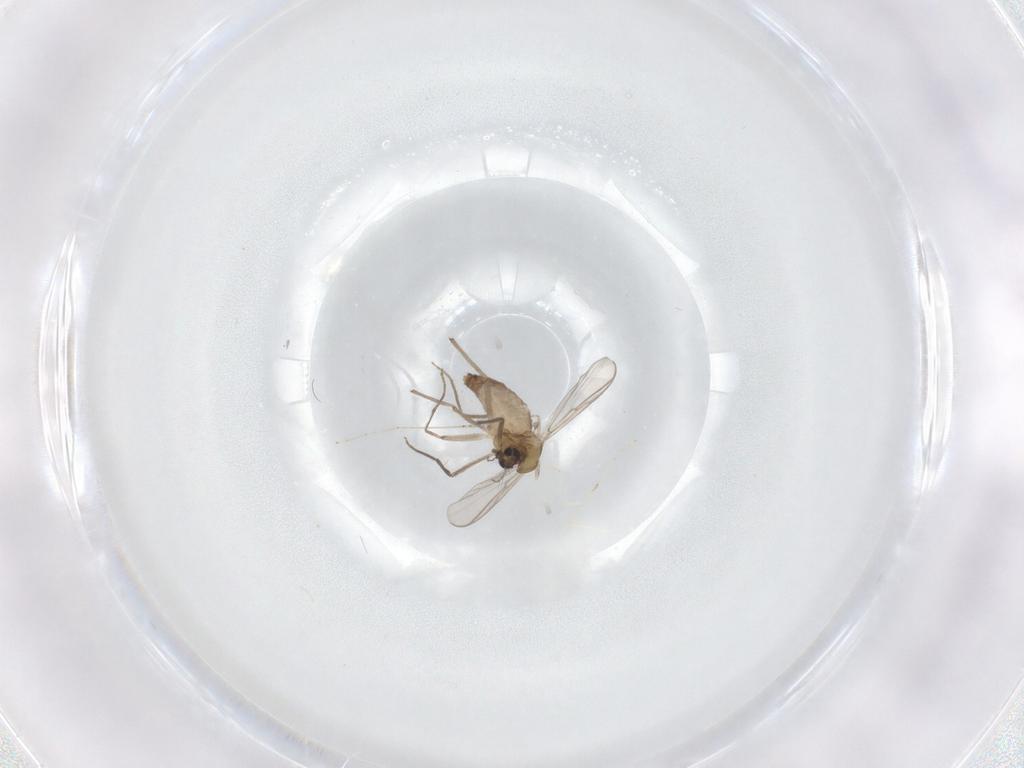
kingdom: Animalia
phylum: Arthropoda
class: Insecta
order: Diptera
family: Chironomidae
